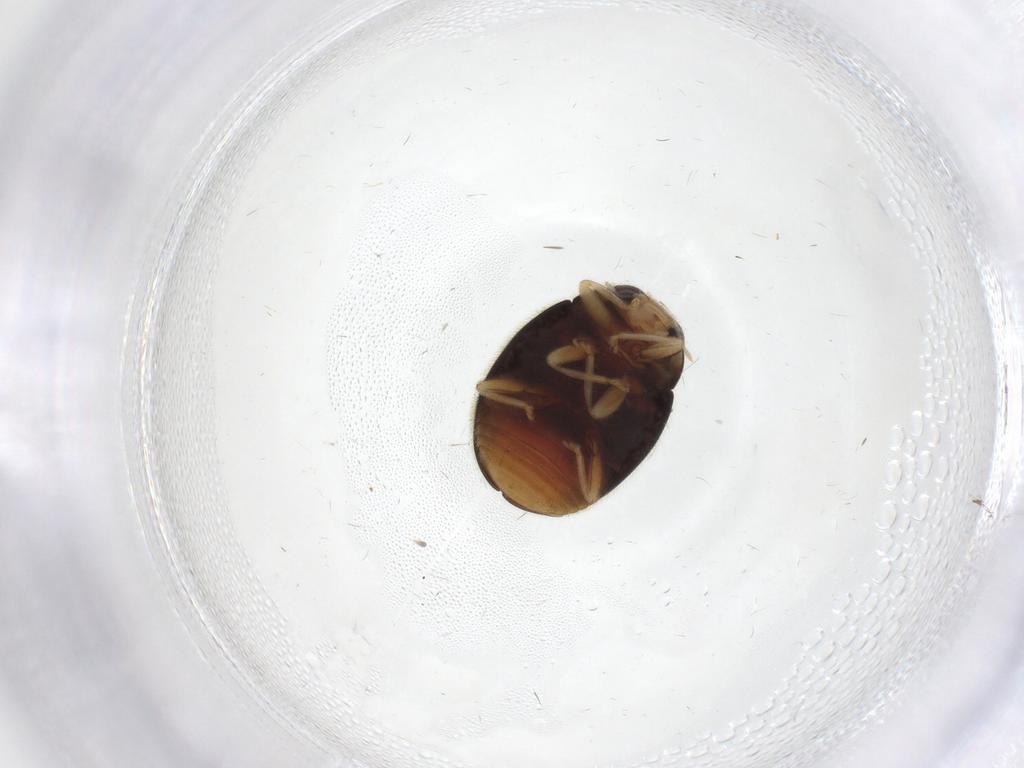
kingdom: Animalia
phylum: Arthropoda
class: Insecta
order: Coleoptera
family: Coccinellidae
